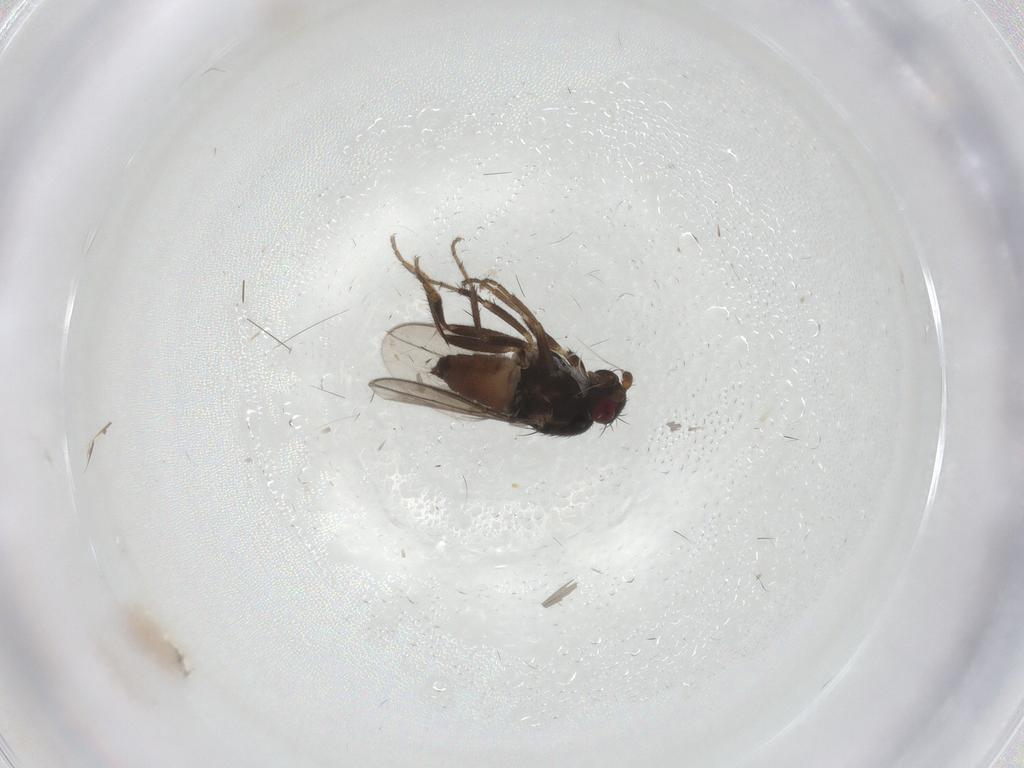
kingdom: Animalia
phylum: Arthropoda
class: Insecta
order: Diptera
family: Sphaeroceridae
